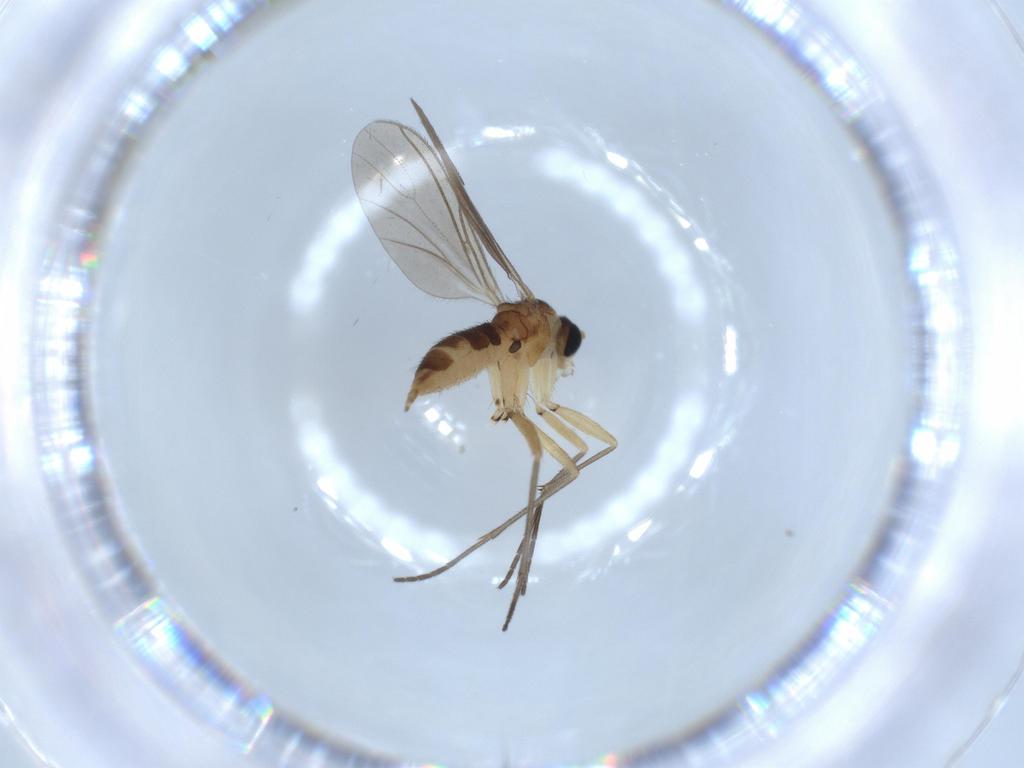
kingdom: Animalia
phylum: Arthropoda
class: Insecta
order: Diptera
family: Sciaridae
